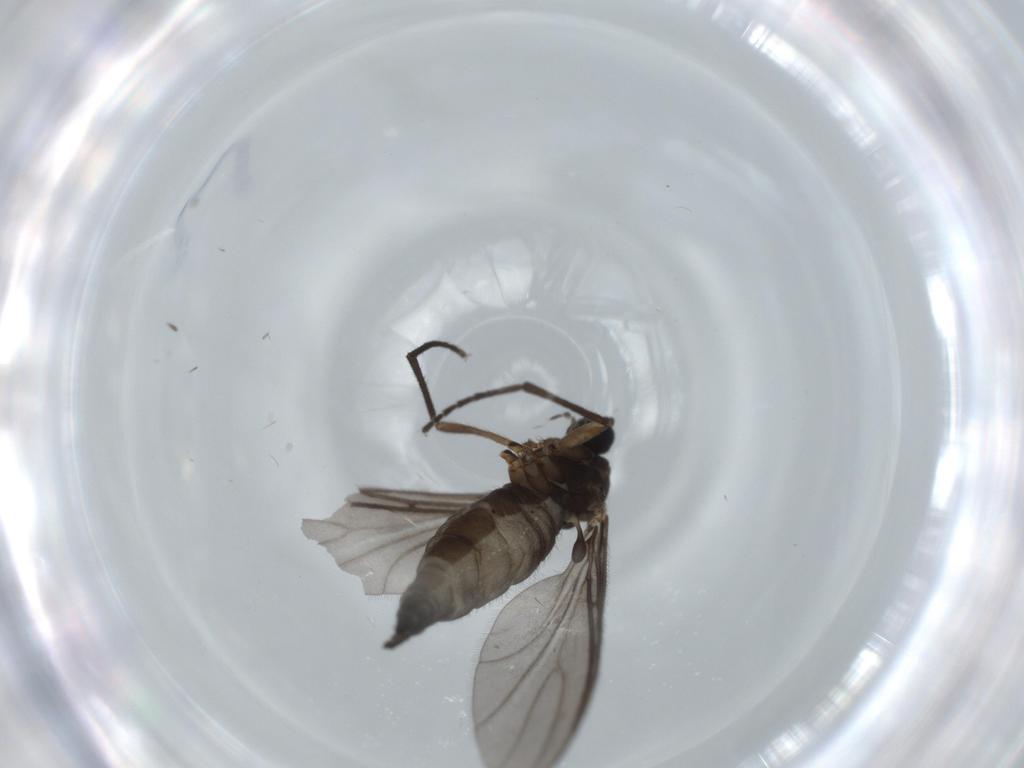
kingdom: Animalia
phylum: Arthropoda
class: Insecta
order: Diptera
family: Sciaridae
